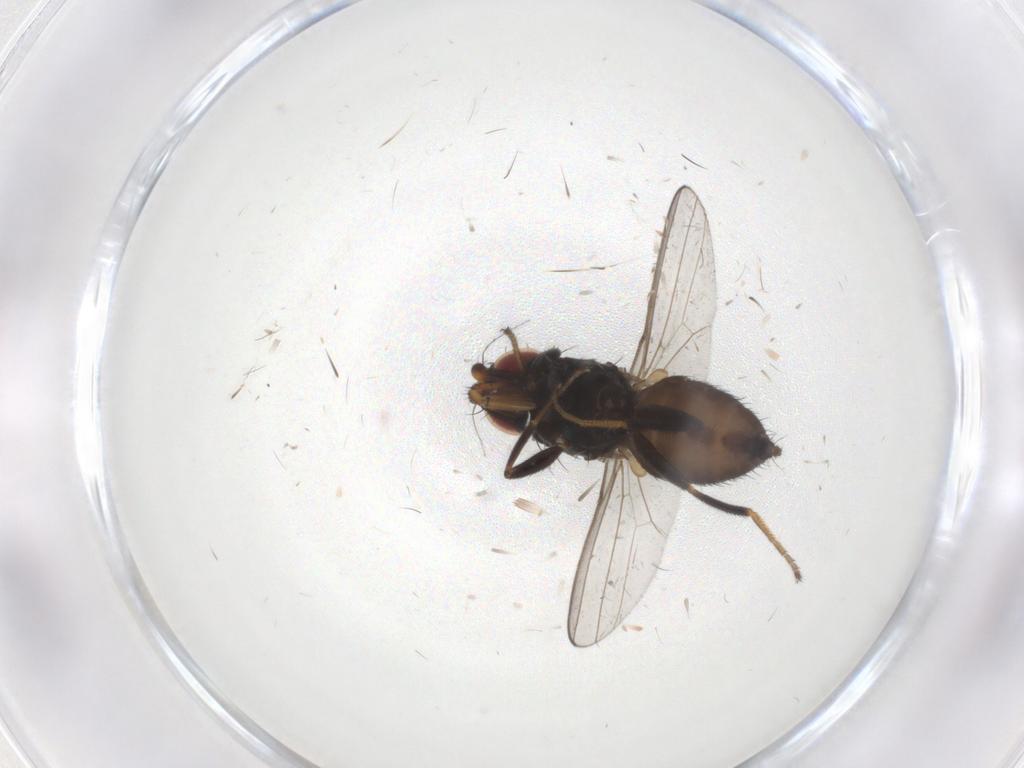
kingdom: Animalia
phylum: Arthropoda
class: Insecta
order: Diptera
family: Milichiidae
